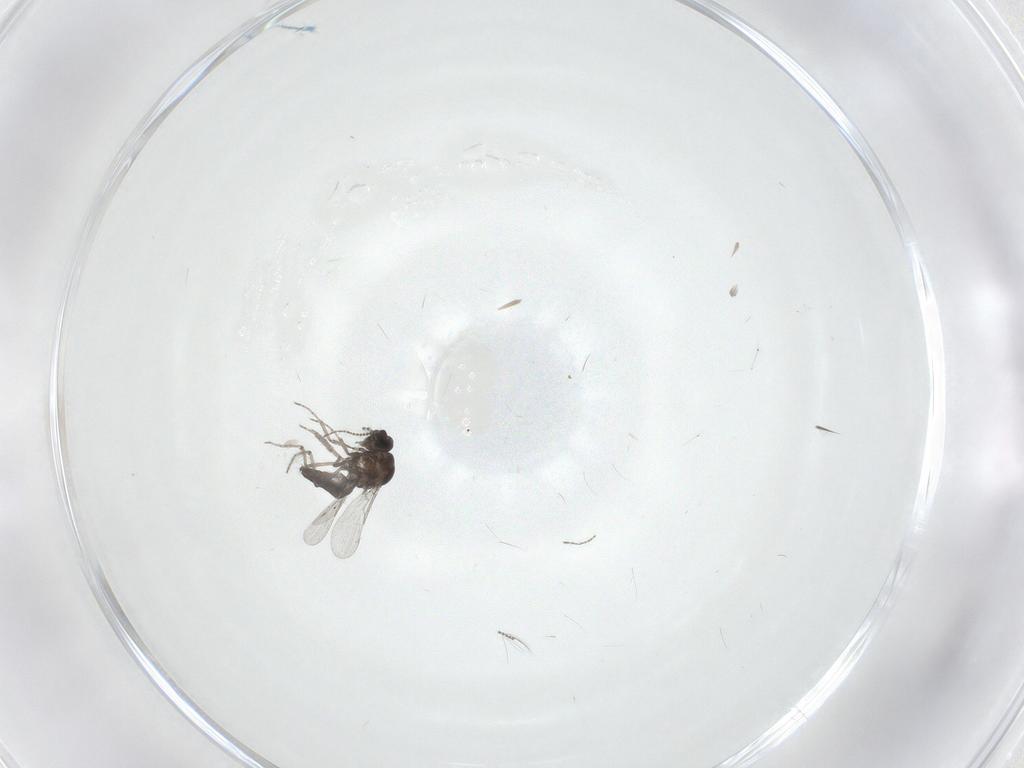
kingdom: Animalia
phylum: Arthropoda
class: Insecta
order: Diptera
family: Ceratopogonidae
